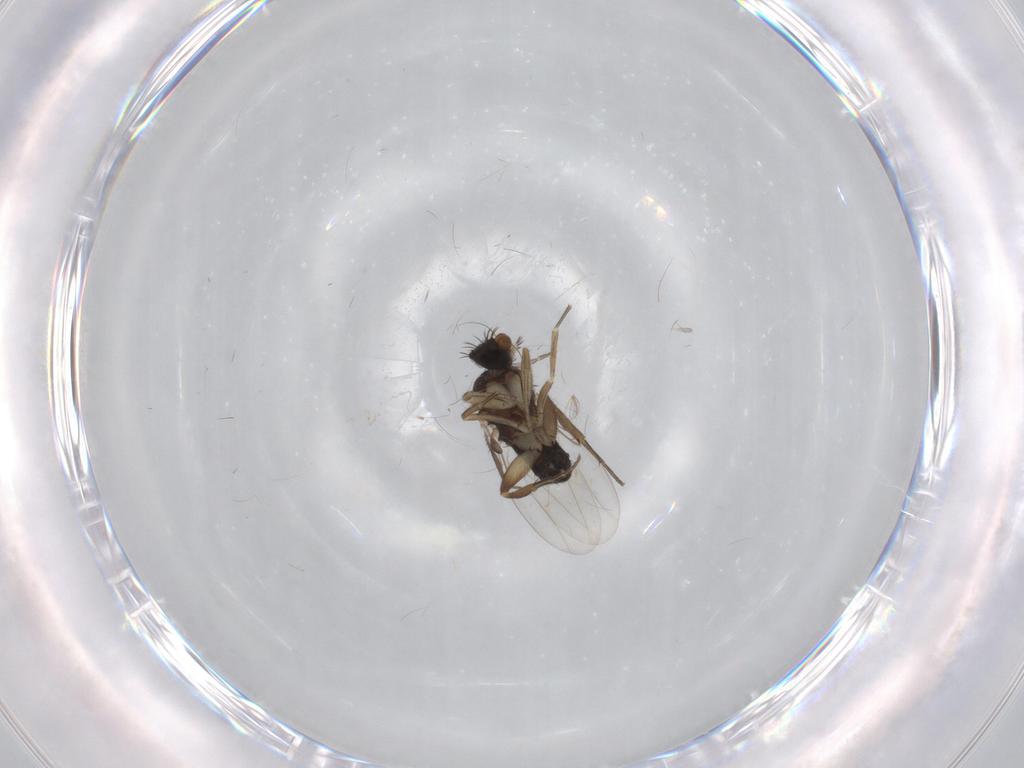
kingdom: Animalia
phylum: Arthropoda
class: Insecta
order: Diptera
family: Phoridae
